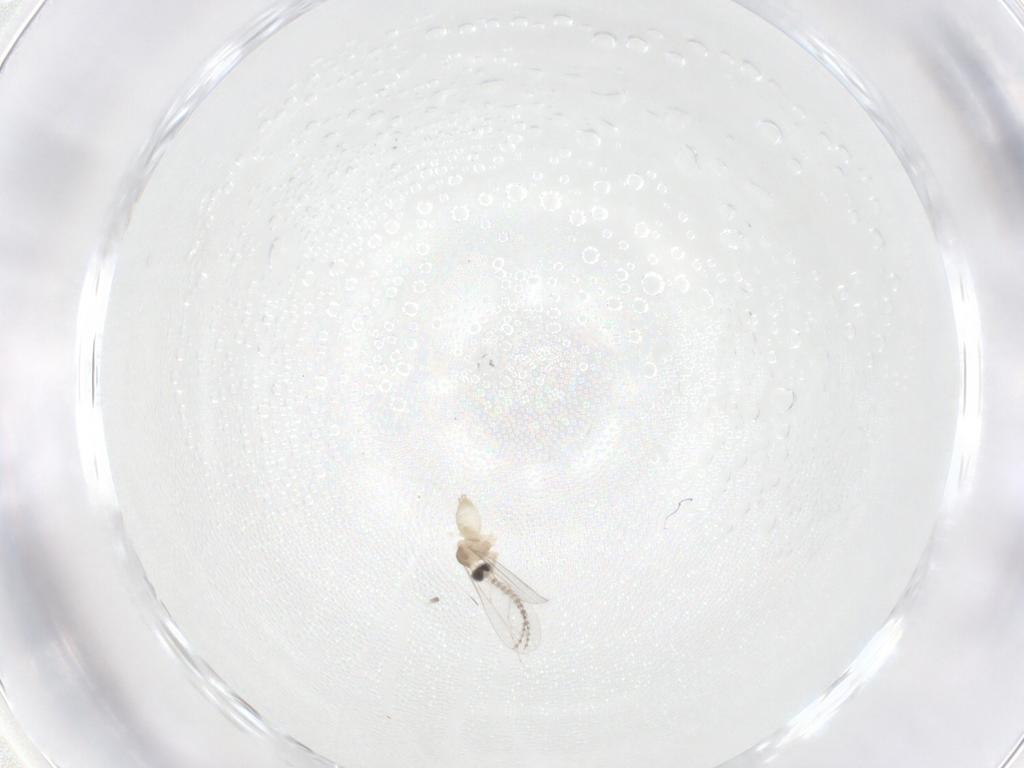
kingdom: Animalia
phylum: Arthropoda
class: Insecta
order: Diptera
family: Cecidomyiidae
